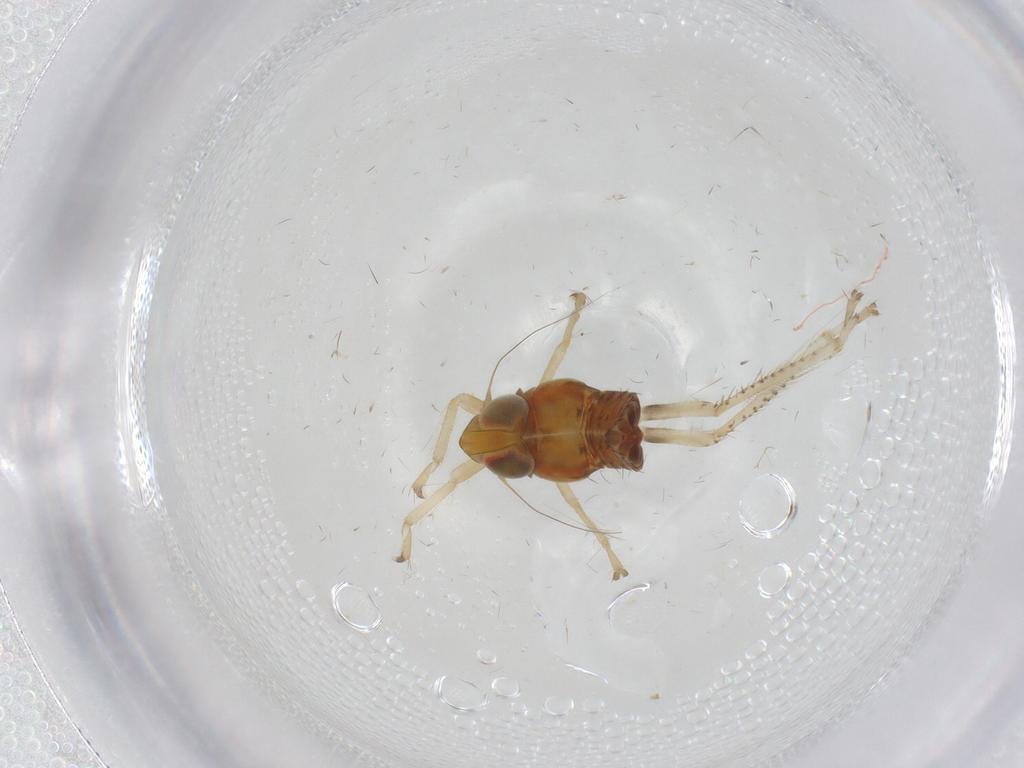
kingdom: Animalia
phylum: Arthropoda
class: Insecta
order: Hemiptera
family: Cicadellidae
